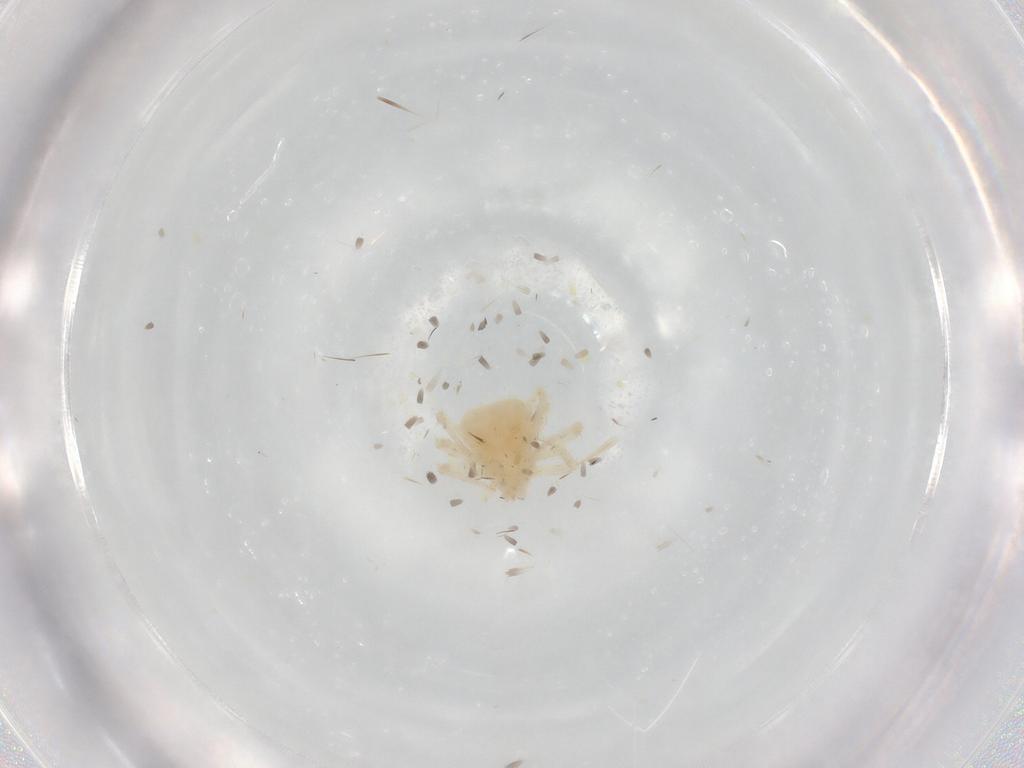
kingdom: Animalia
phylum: Arthropoda
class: Arachnida
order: Trombidiformes
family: Anystidae
